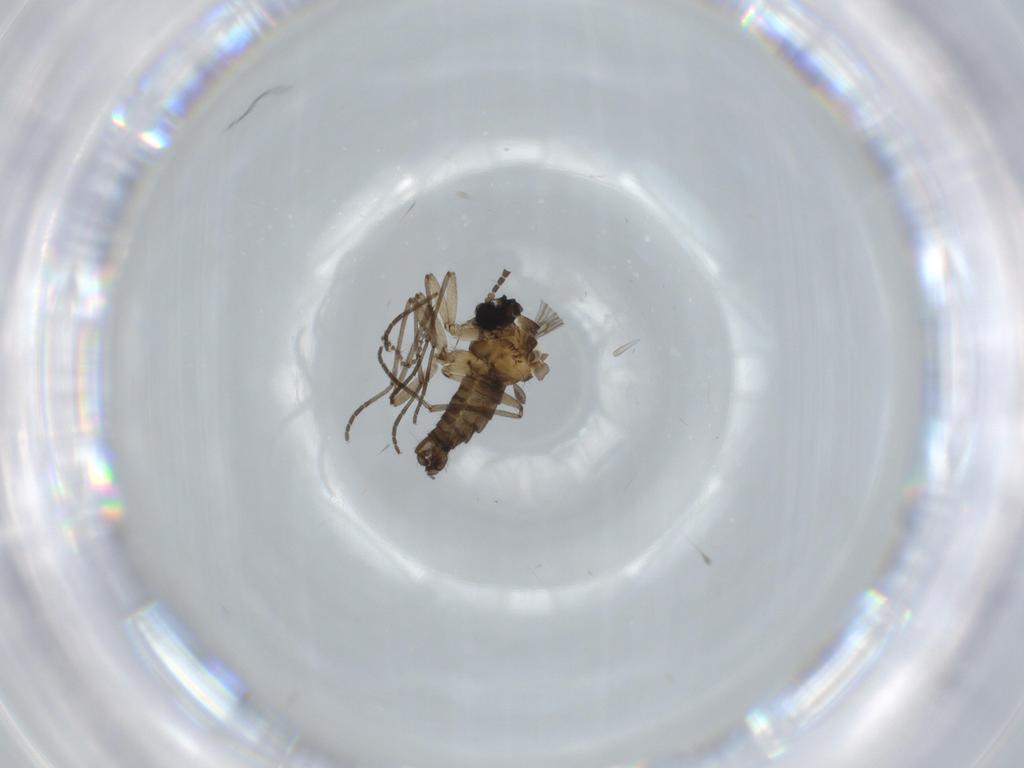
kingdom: Animalia
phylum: Arthropoda
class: Insecta
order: Diptera
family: Sciaridae
